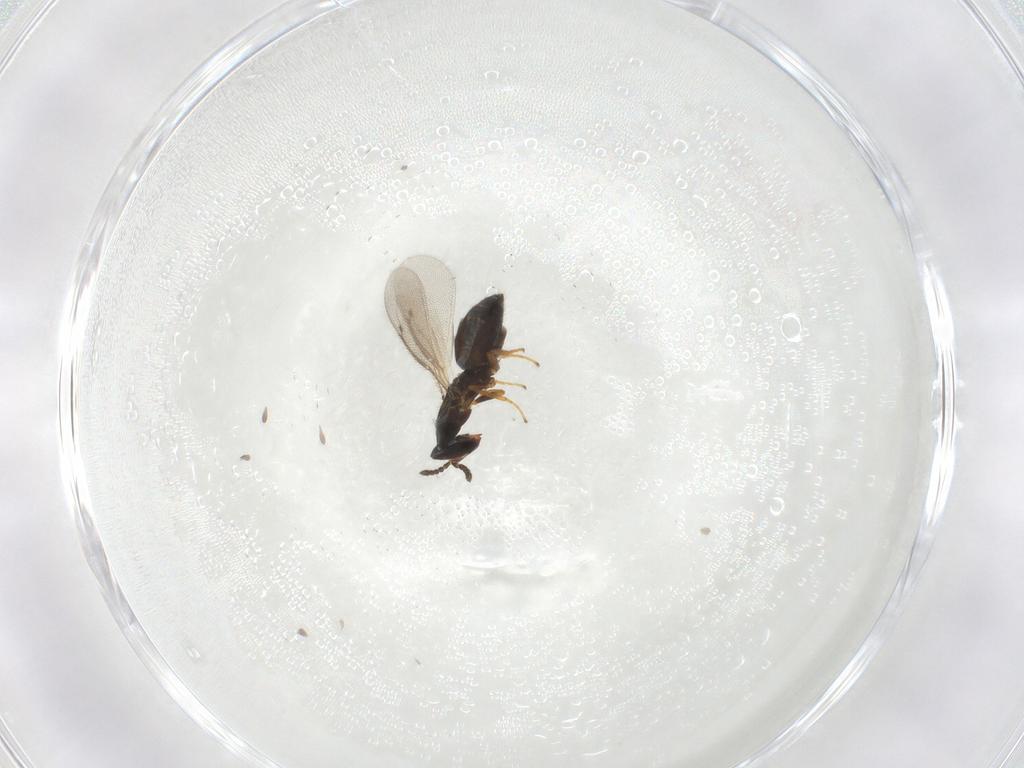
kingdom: Animalia
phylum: Arthropoda
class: Insecta
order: Hymenoptera
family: Eulophidae
